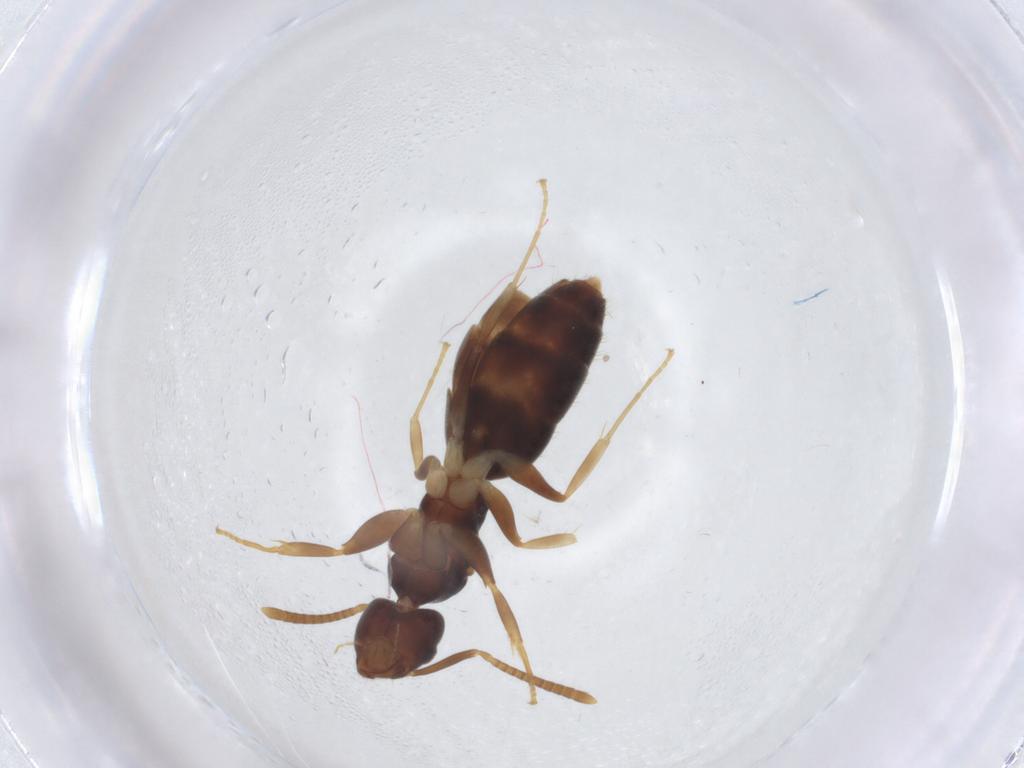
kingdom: Animalia
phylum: Arthropoda
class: Insecta
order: Hymenoptera
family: Formicidae
